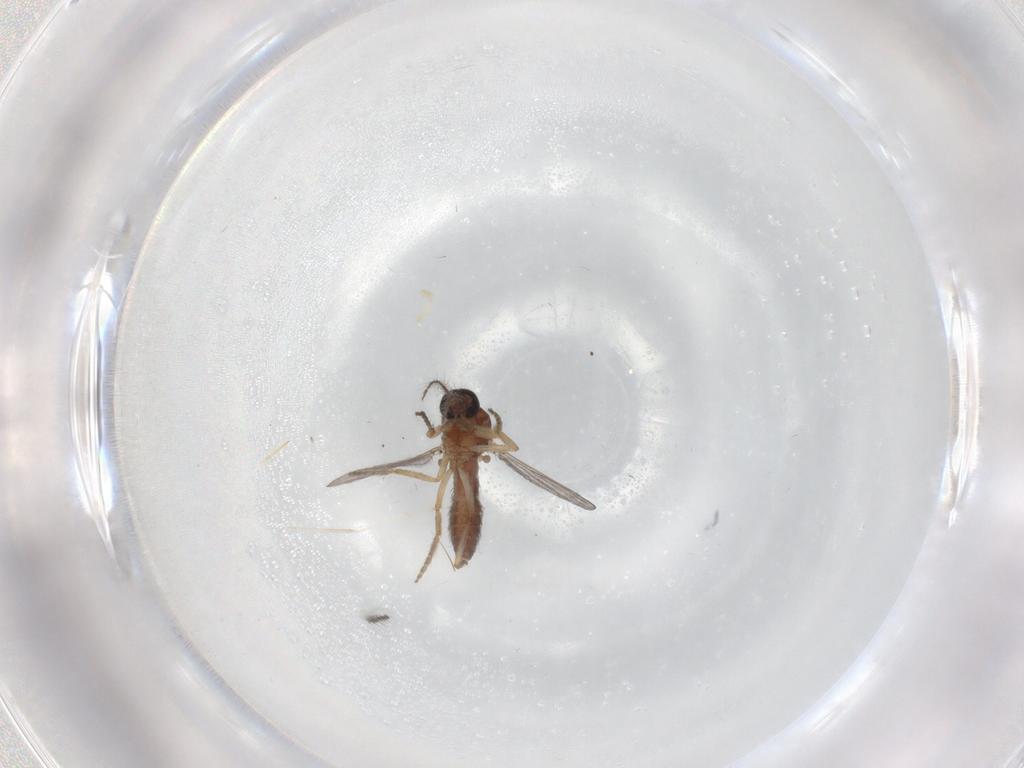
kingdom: Animalia
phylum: Arthropoda
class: Insecta
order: Diptera
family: Cecidomyiidae
